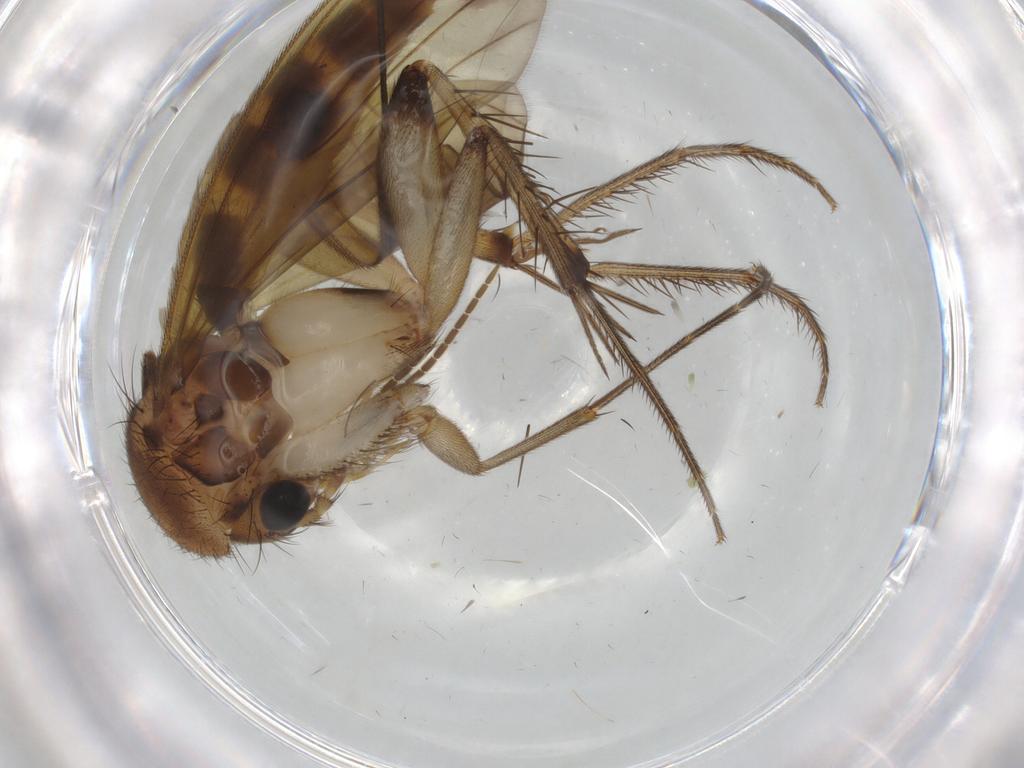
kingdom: Animalia
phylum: Arthropoda
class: Insecta
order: Diptera
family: Mycetophilidae
